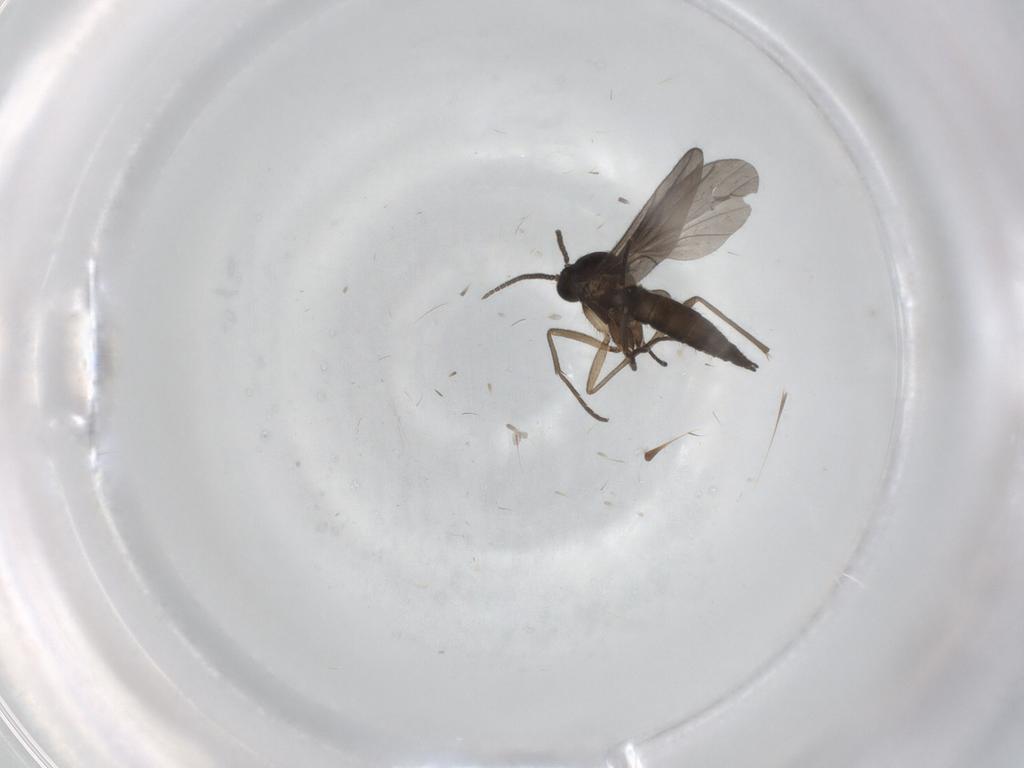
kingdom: Animalia
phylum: Arthropoda
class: Insecta
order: Diptera
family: Sciaridae
